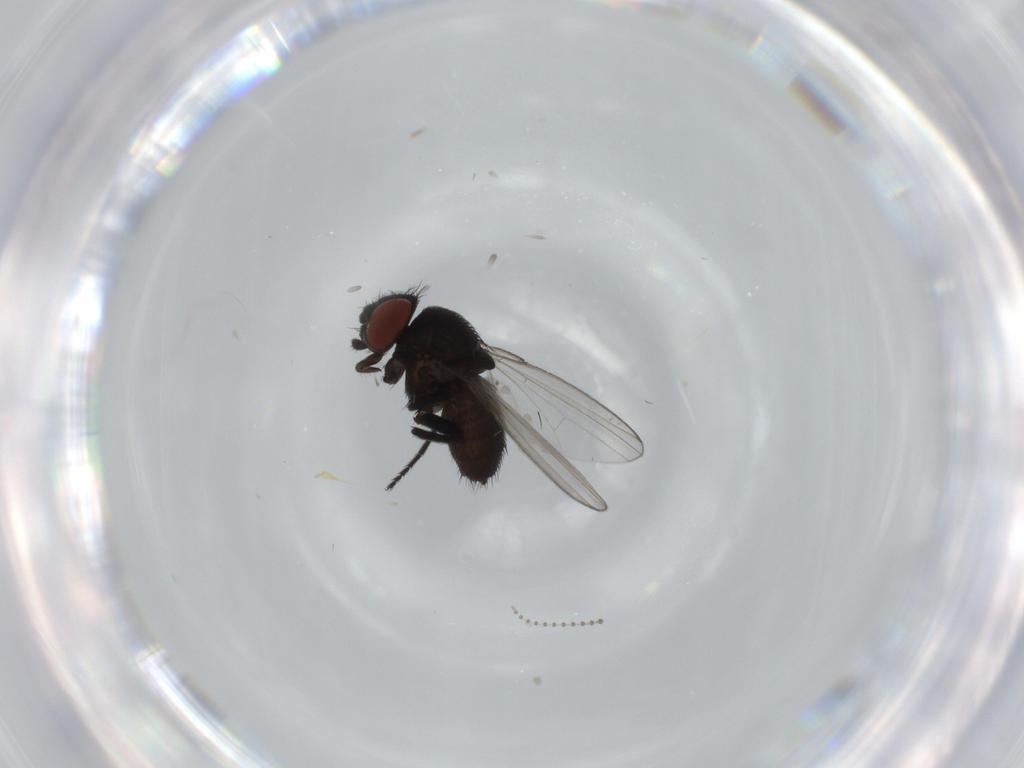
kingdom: Animalia
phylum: Arthropoda
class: Insecta
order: Diptera
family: Psychodidae
